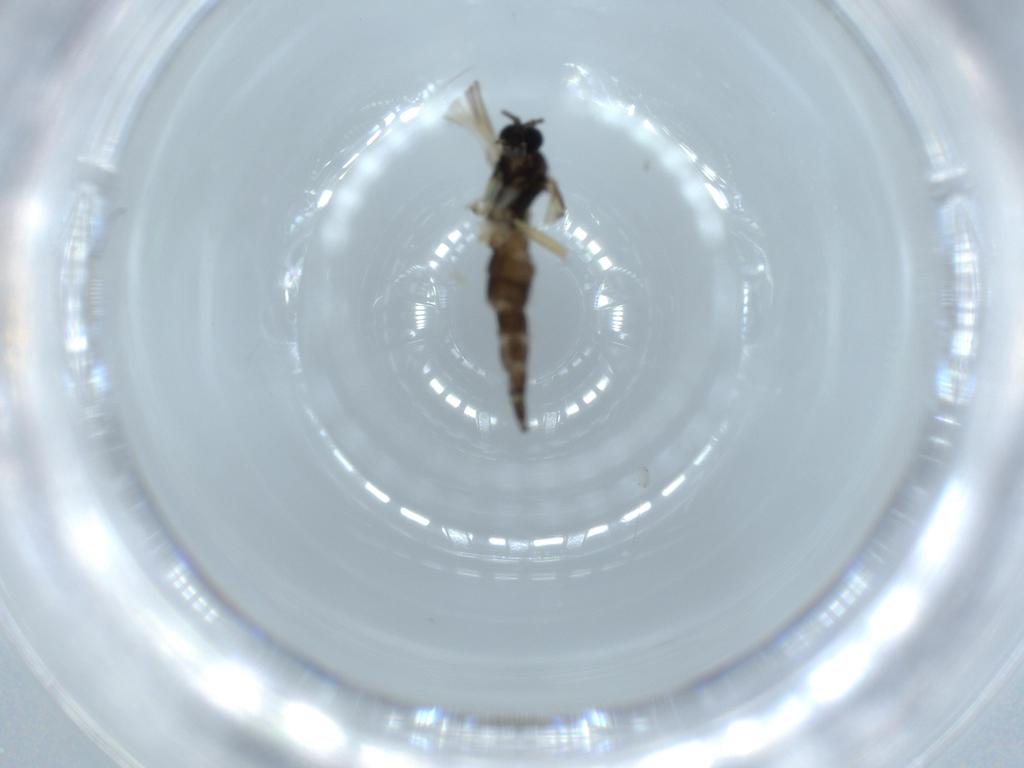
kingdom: Animalia
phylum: Arthropoda
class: Insecta
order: Diptera
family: Sciaridae
